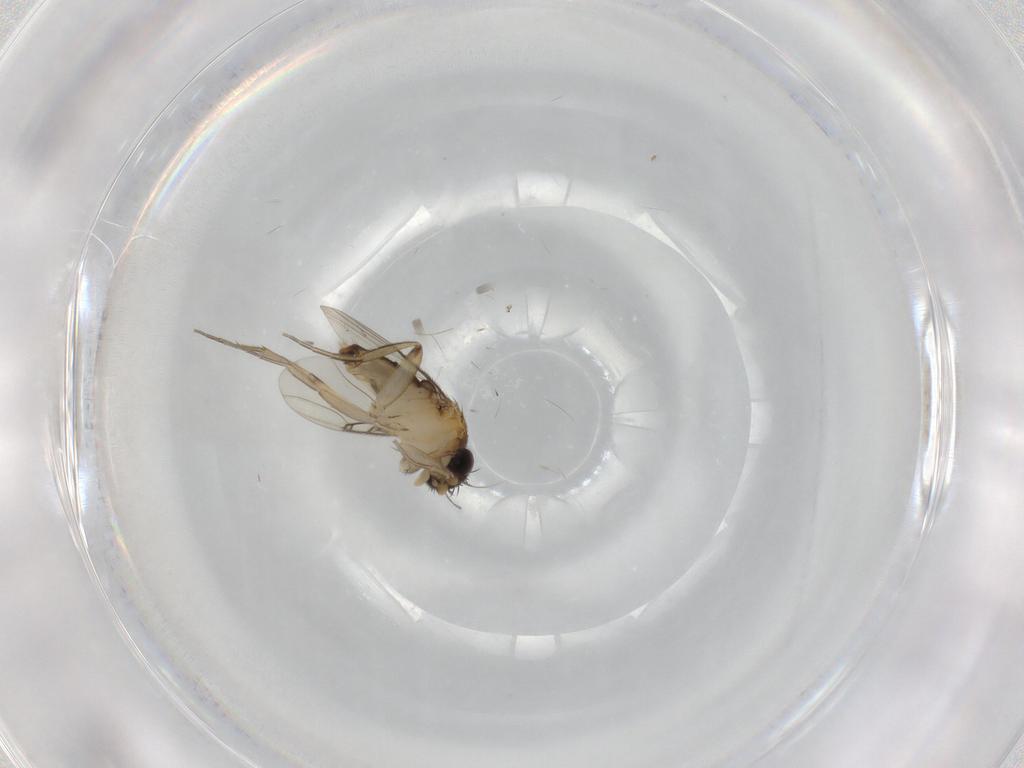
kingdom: Animalia
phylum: Arthropoda
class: Insecta
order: Diptera
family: Phoridae
